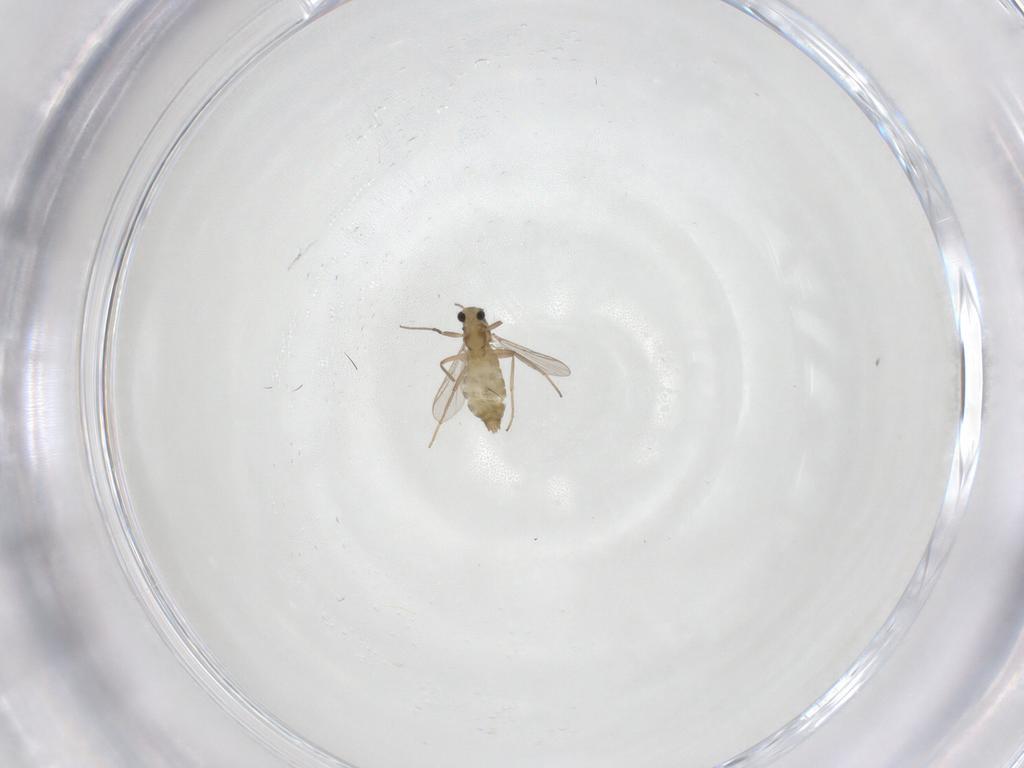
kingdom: Animalia
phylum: Arthropoda
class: Insecta
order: Diptera
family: Chironomidae
